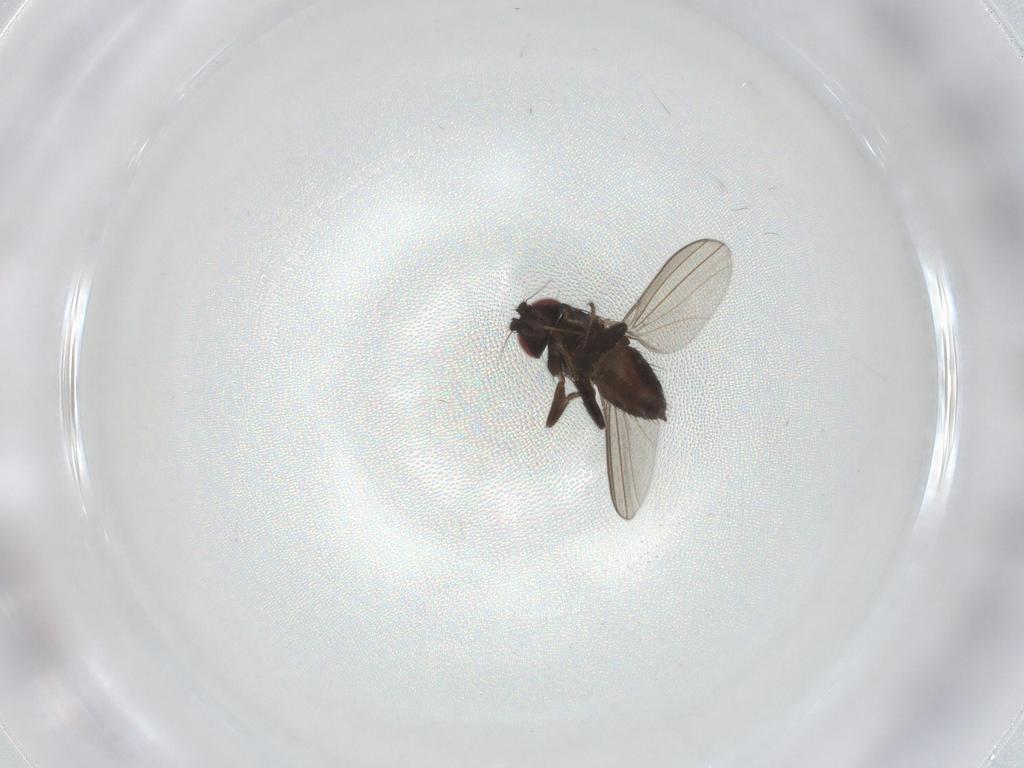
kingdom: Animalia
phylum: Arthropoda
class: Insecta
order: Diptera
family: Milichiidae
